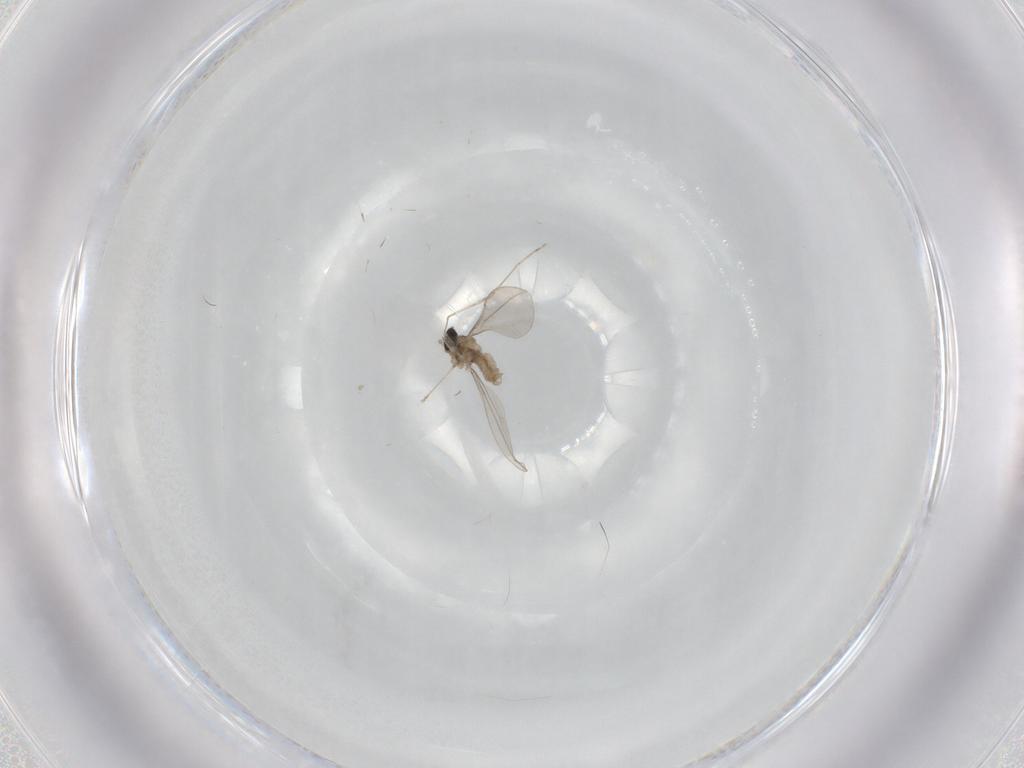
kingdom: Animalia
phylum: Arthropoda
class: Insecta
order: Diptera
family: Cecidomyiidae
